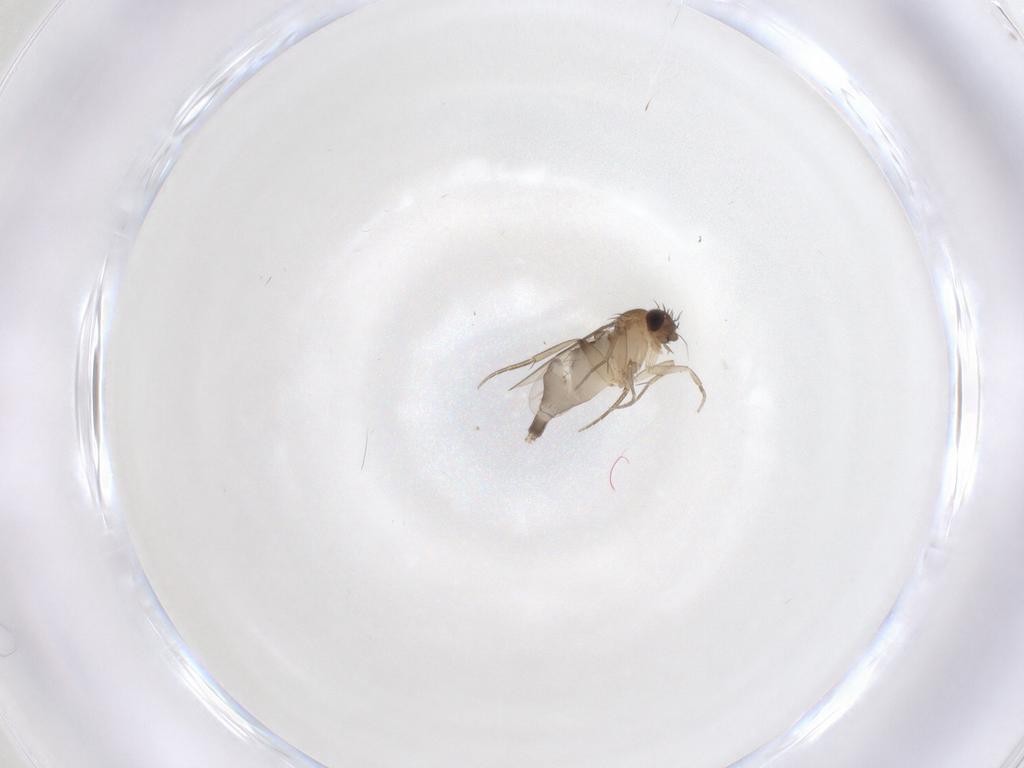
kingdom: Animalia
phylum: Arthropoda
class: Insecta
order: Diptera
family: Phoridae
